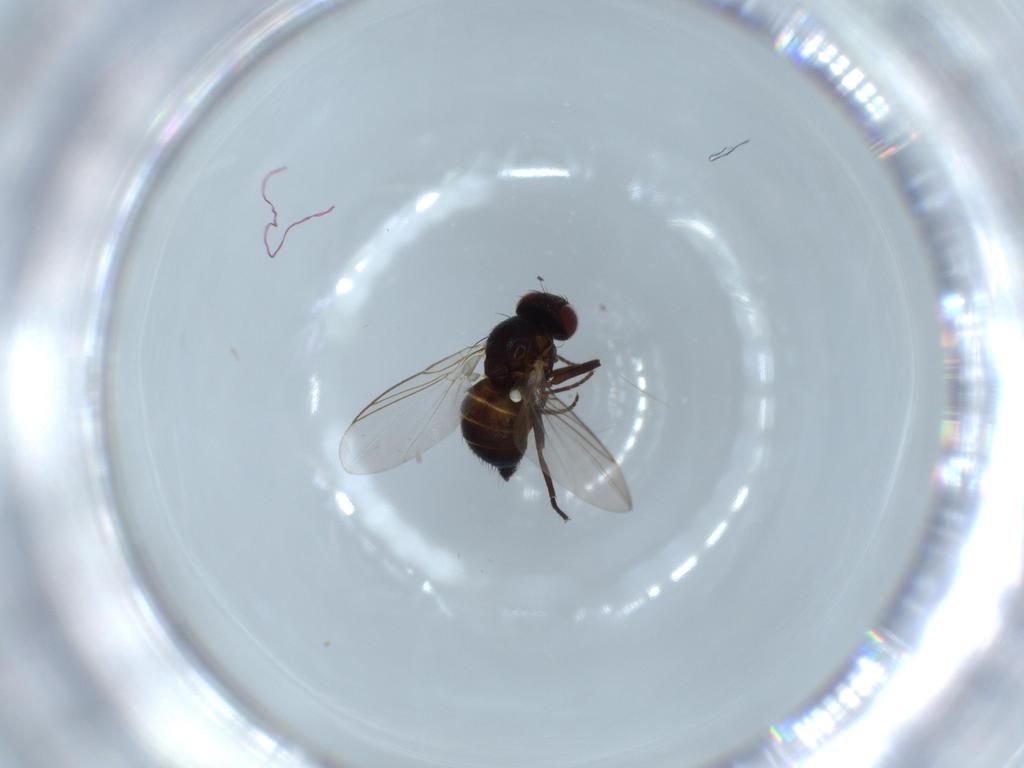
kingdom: Animalia
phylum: Arthropoda
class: Insecta
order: Diptera
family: Agromyzidae
